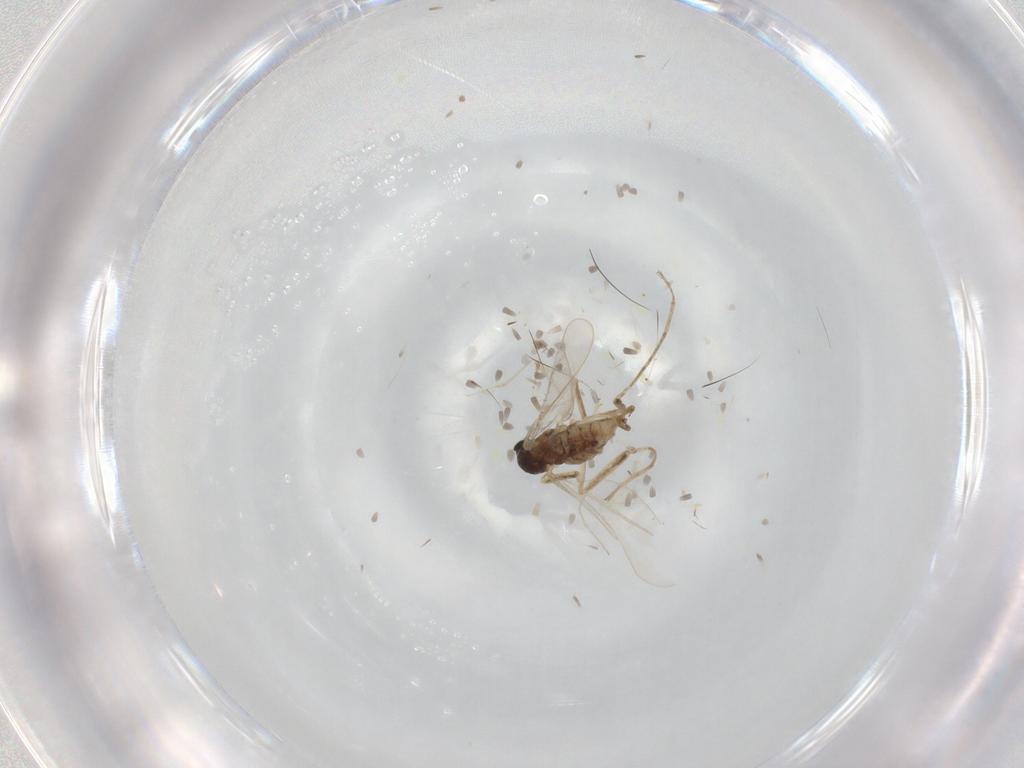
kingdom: Animalia
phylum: Arthropoda
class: Insecta
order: Diptera
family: Cecidomyiidae
